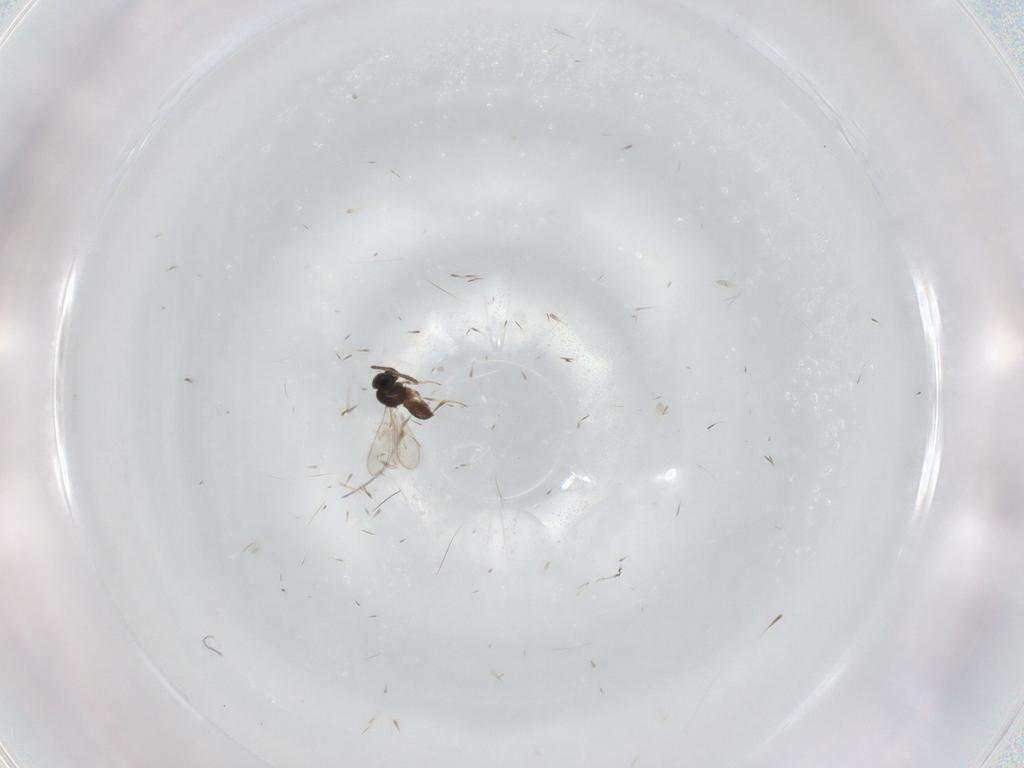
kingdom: Animalia
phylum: Arthropoda
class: Insecta
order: Hymenoptera
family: Scelionidae
